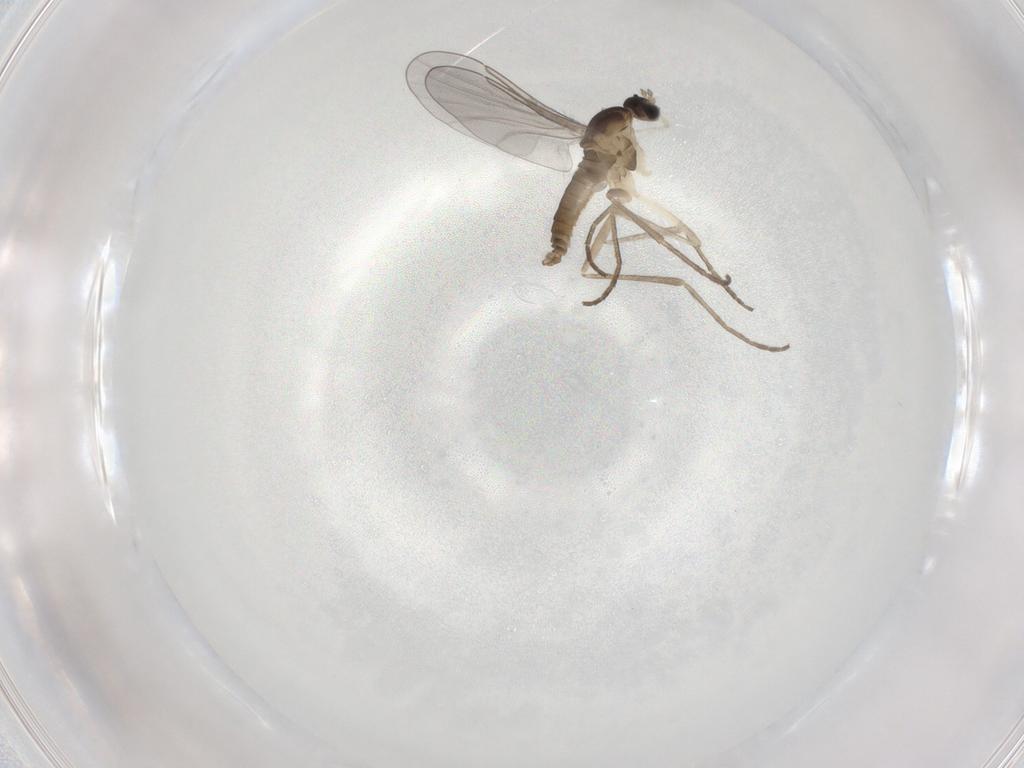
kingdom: Animalia
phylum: Arthropoda
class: Insecta
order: Diptera
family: Cecidomyiidae
